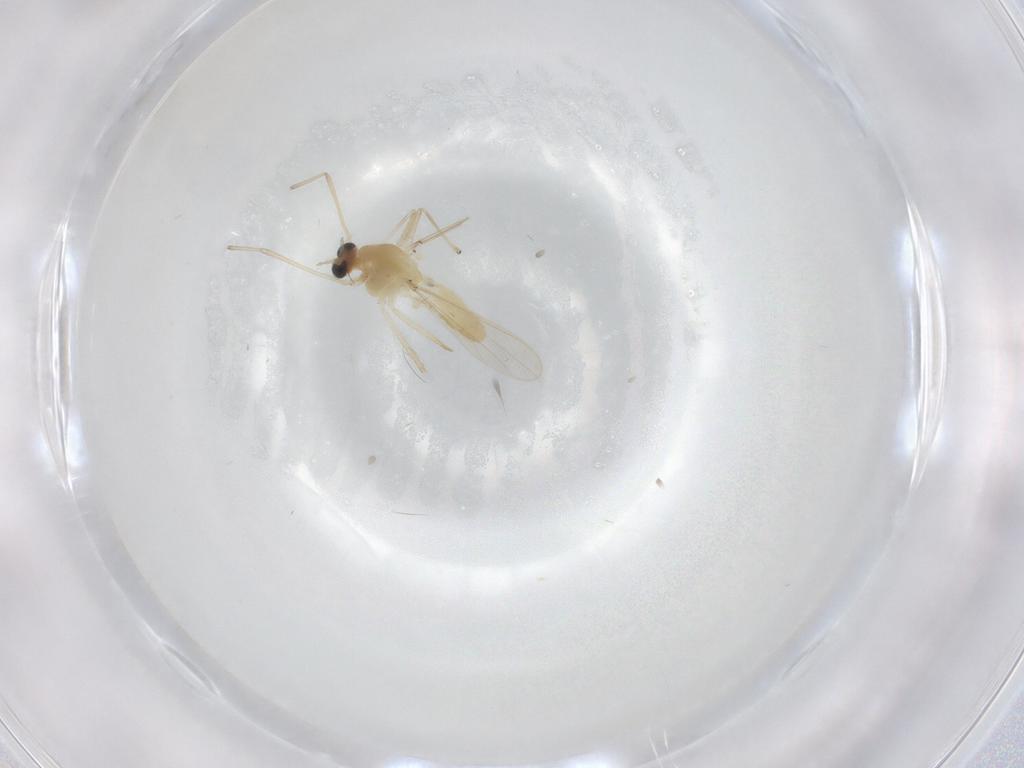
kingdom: Animalia
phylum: Arthropoda
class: Insecta
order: Diptera
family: Chironomidae
